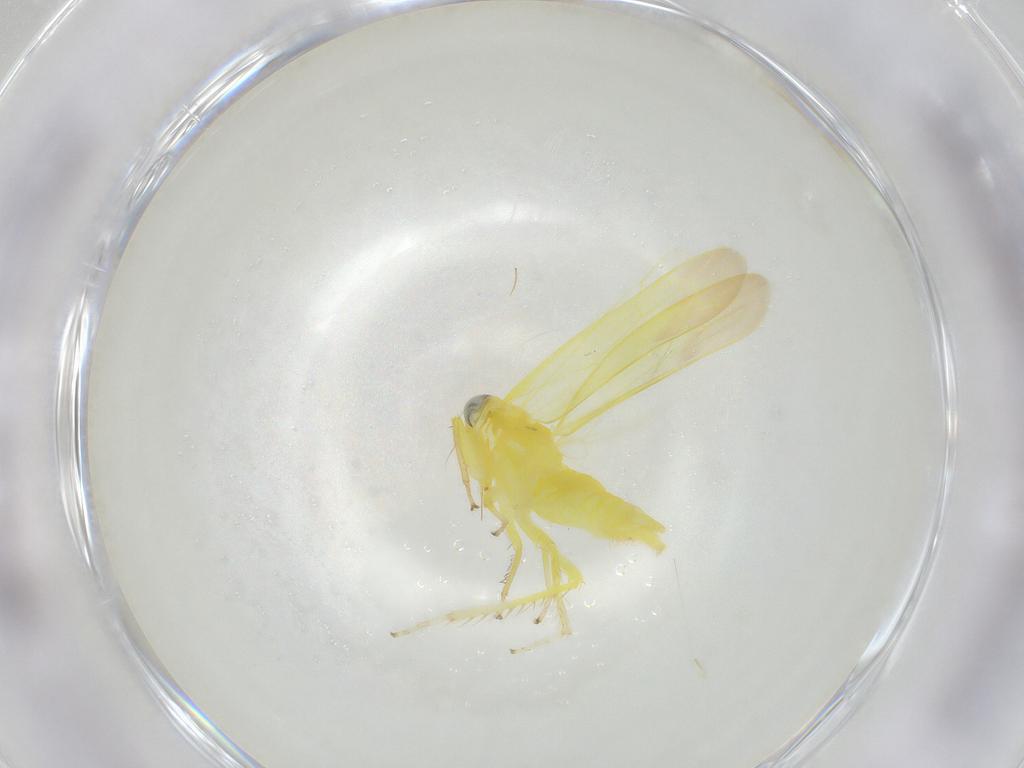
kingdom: Animalia
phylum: Arthropoda
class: Insecta
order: Hemiptera
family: Cicadellidae
